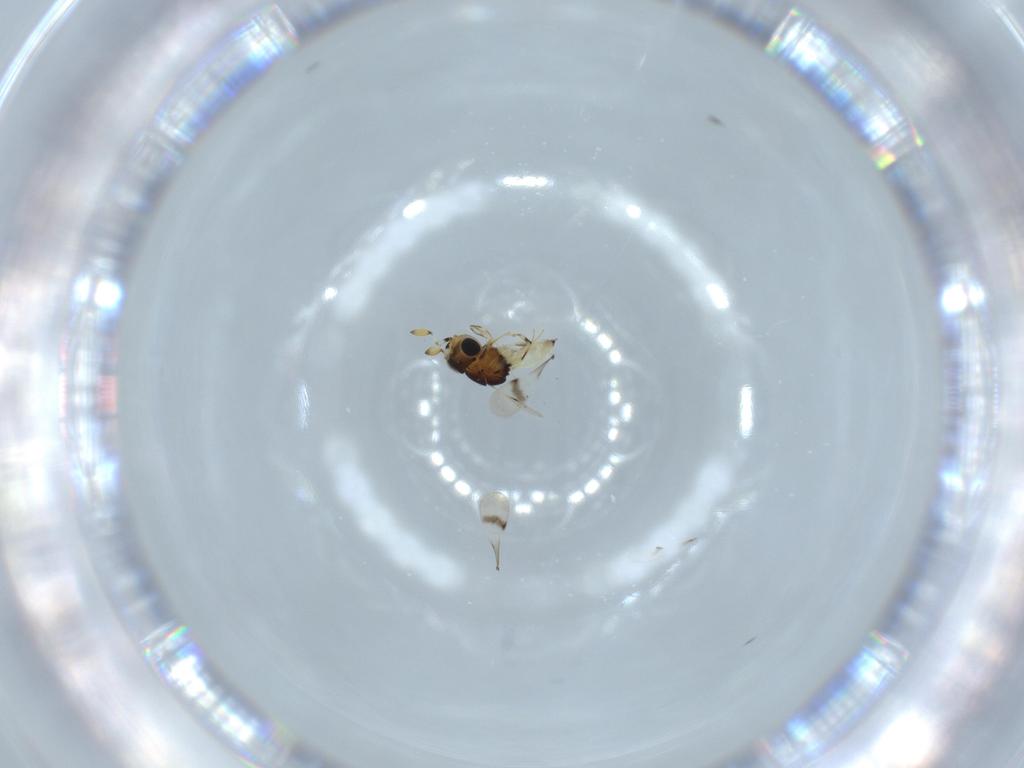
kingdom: Animalia
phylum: Arthropoda
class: Insecta
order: Hymenoptera
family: Scelionidae
